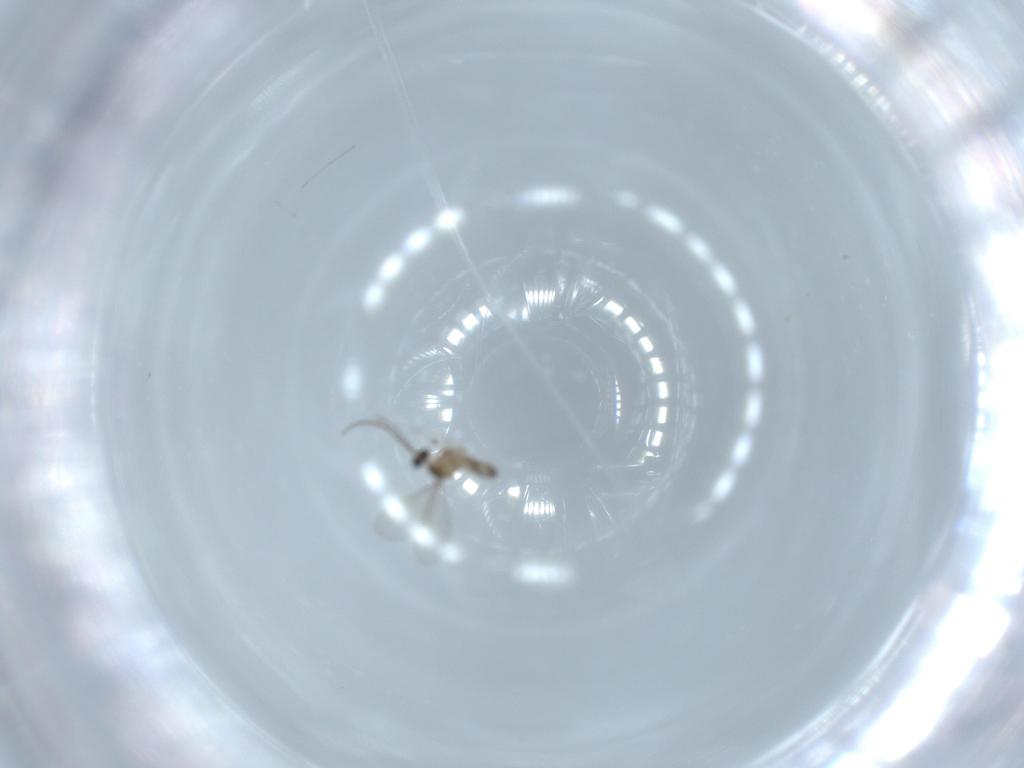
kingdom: Animalia
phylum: Arthropoda
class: Insecta
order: Diptera
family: Cecidomyiidae
